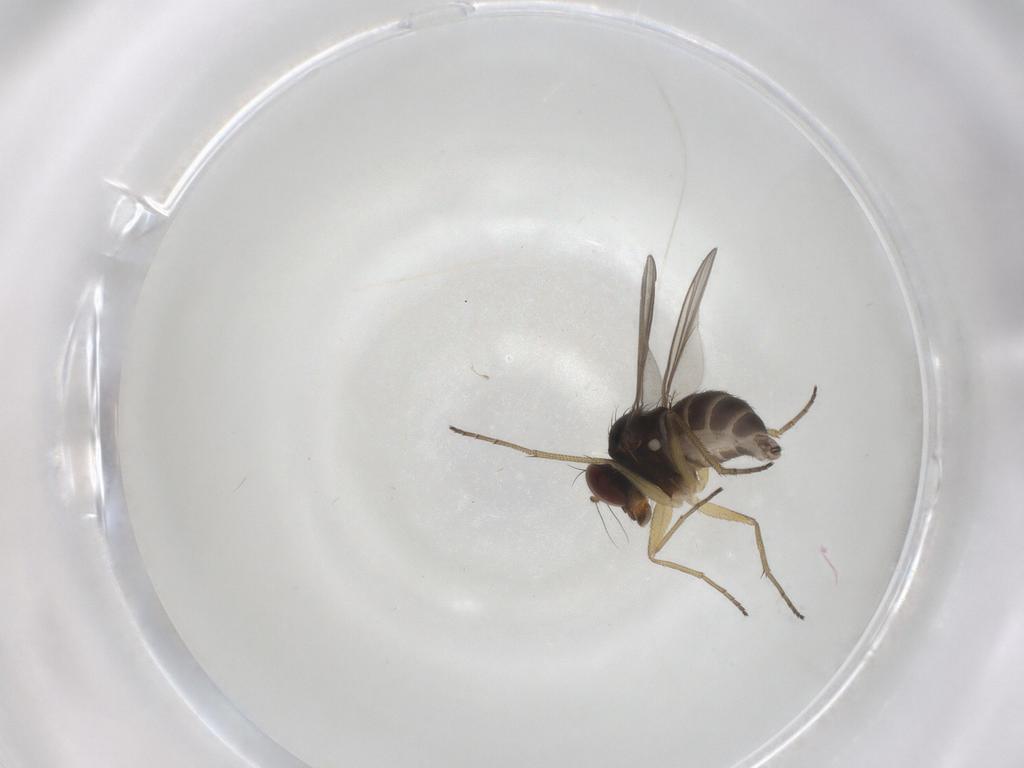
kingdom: Animalia
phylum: Arthropoda
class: Insecta
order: Diptera
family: Dolichopodidae
